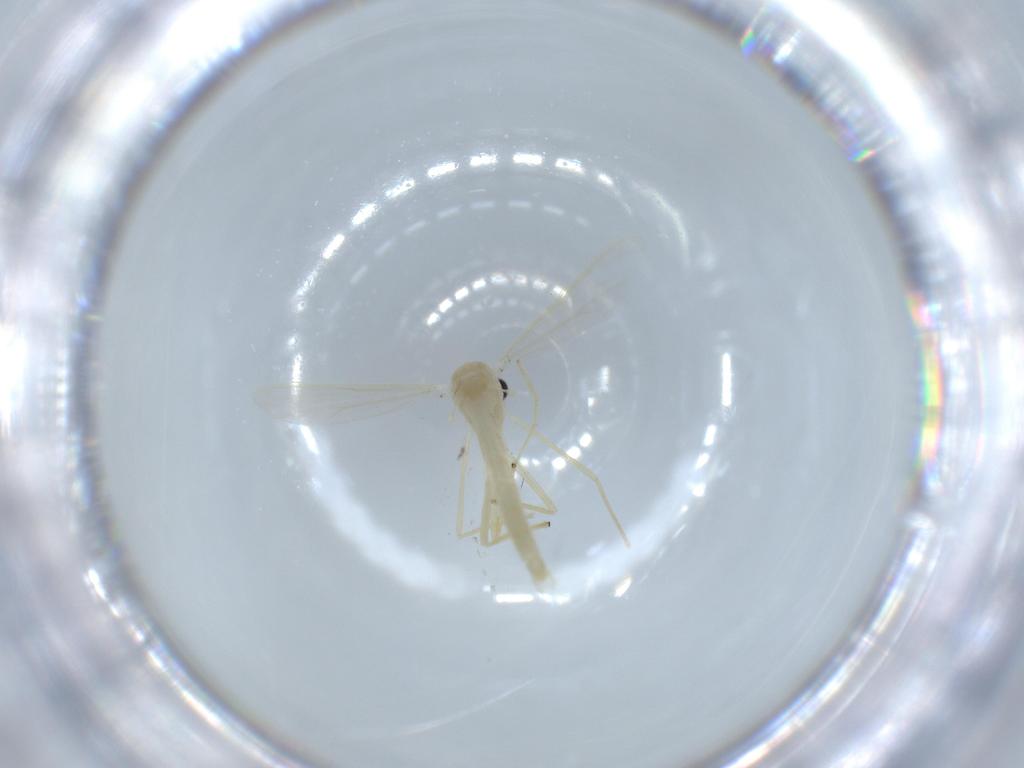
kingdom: Animalia
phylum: Arthropoda
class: Insecta
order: Diptera
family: Chironomidae
